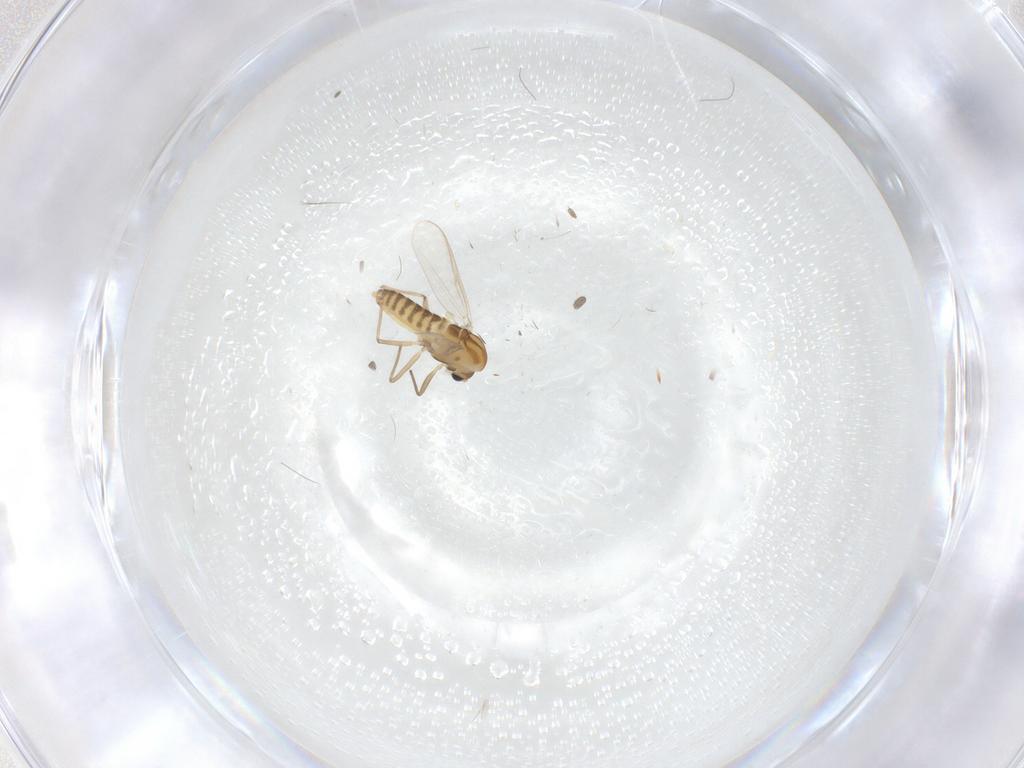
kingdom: Animalia
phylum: Arthropoda
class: Insecta
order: Diptera
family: Chironomidae
